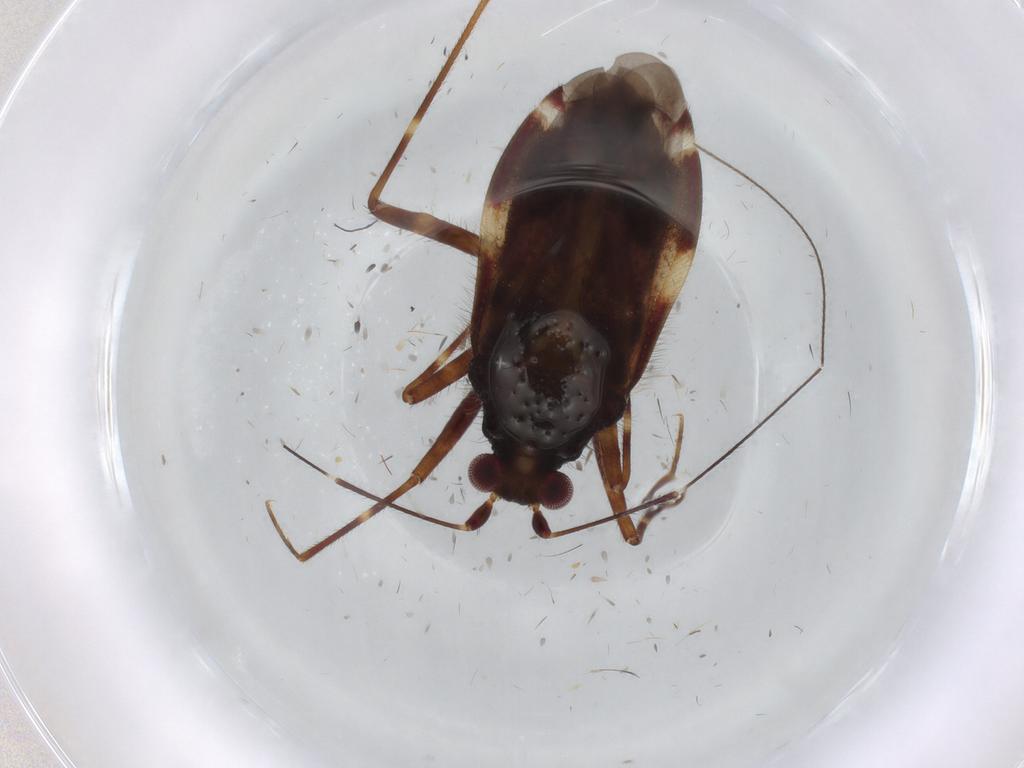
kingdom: Animalia
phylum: Arthropoda
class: Insecta
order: Hemiptera
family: Miridae
